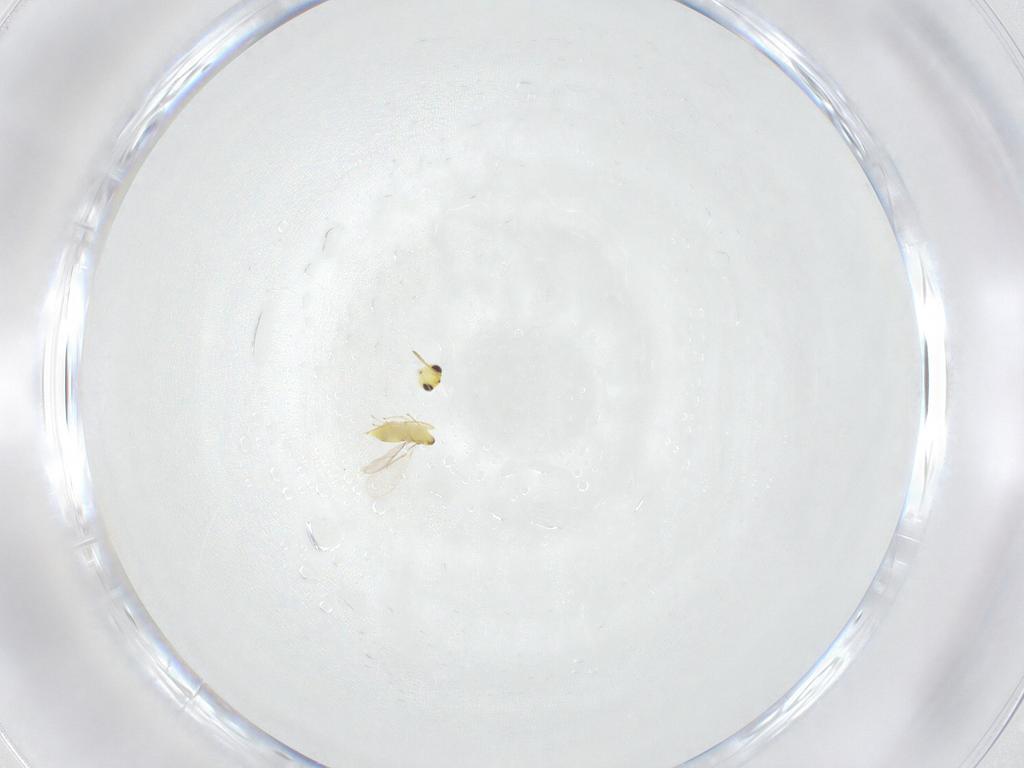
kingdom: Animalia
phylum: Arthropoda
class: Insecta
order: Hymenoptera
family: Aphelinidae
